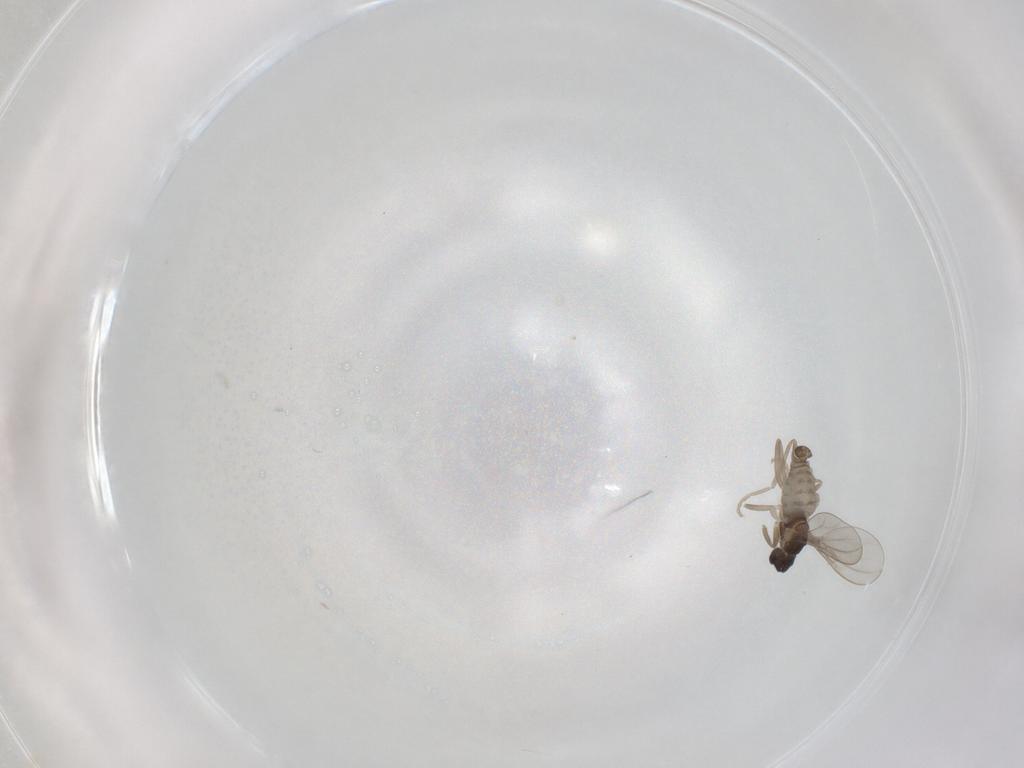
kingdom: Animalia
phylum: Arthropoda
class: Insecta
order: Diptera
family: Cecidomyiidae
